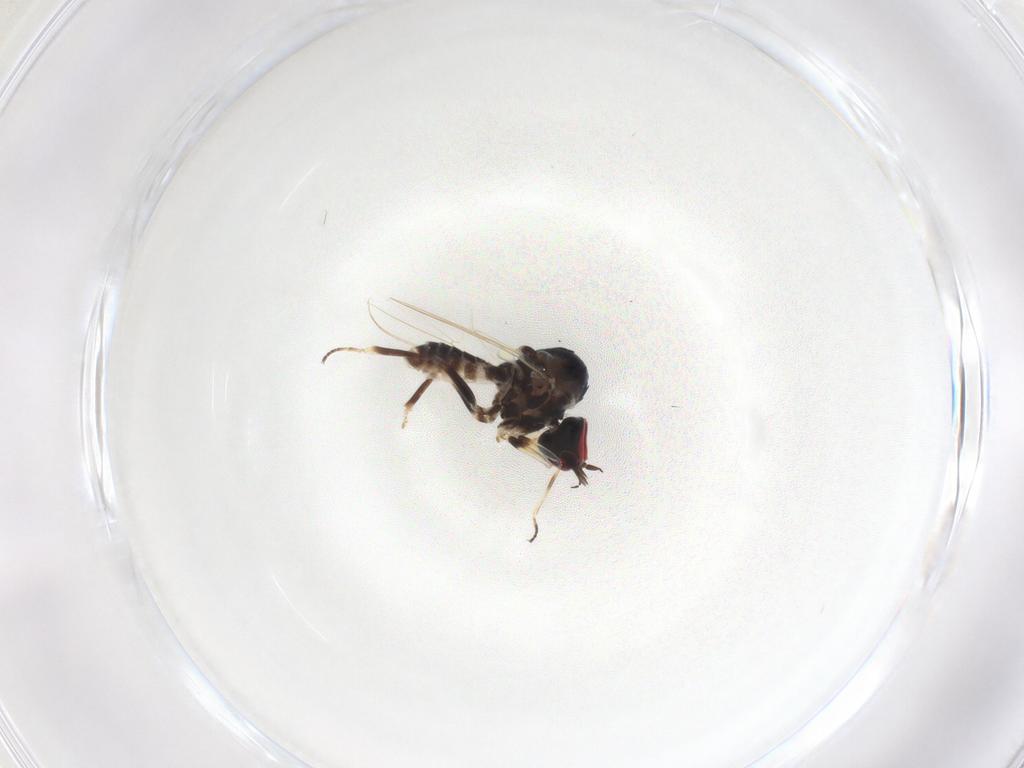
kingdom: Animalia
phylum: Arthropoda
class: Insecta
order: Diptera
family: Bombyliidae
